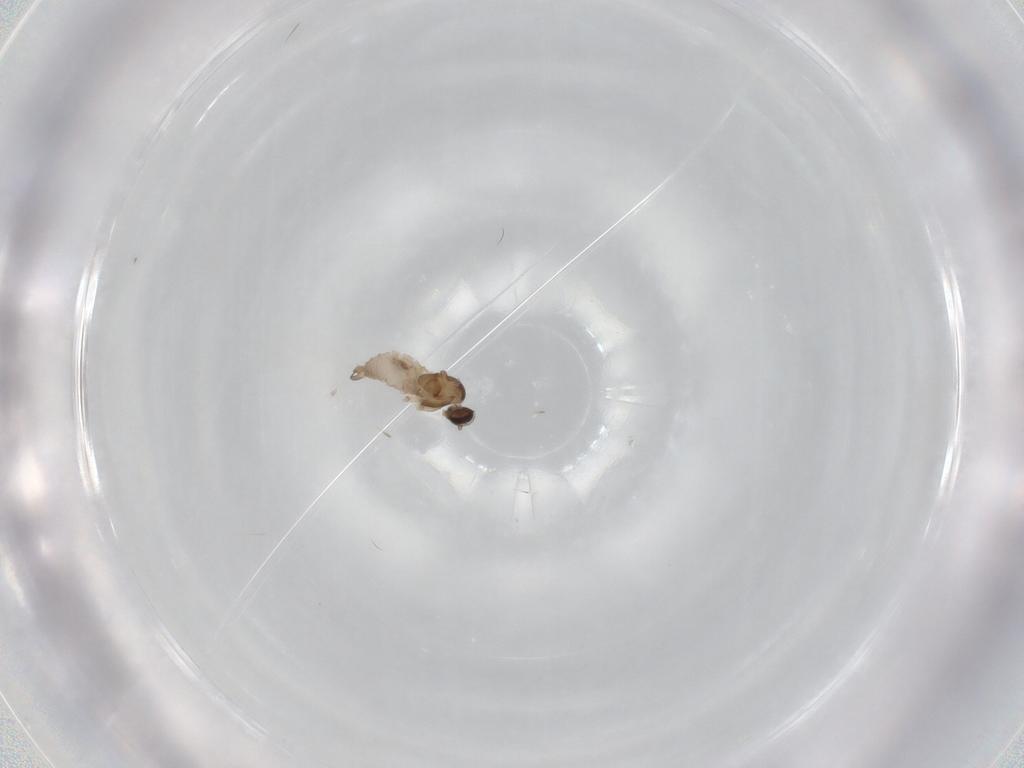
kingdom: Animalia
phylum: Arthropoda
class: Insecta
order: Diptera
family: Cecidomyiidae
